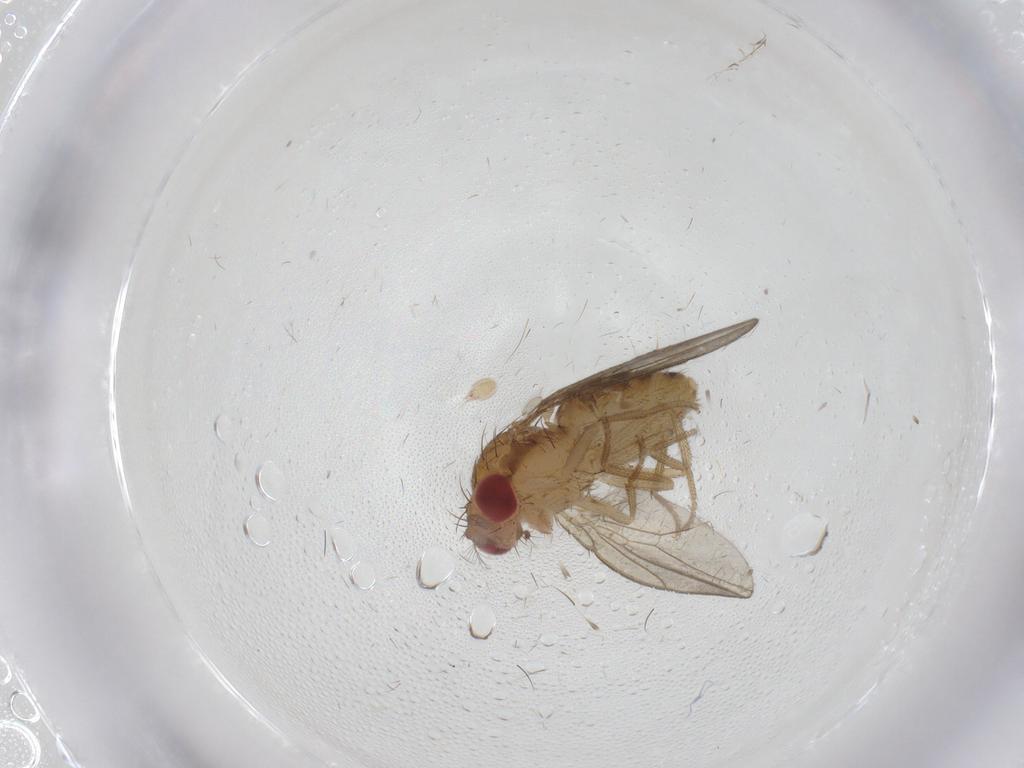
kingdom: Animalia
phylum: Arthropoda
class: Insecta
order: Diptera
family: Drosophilidae
